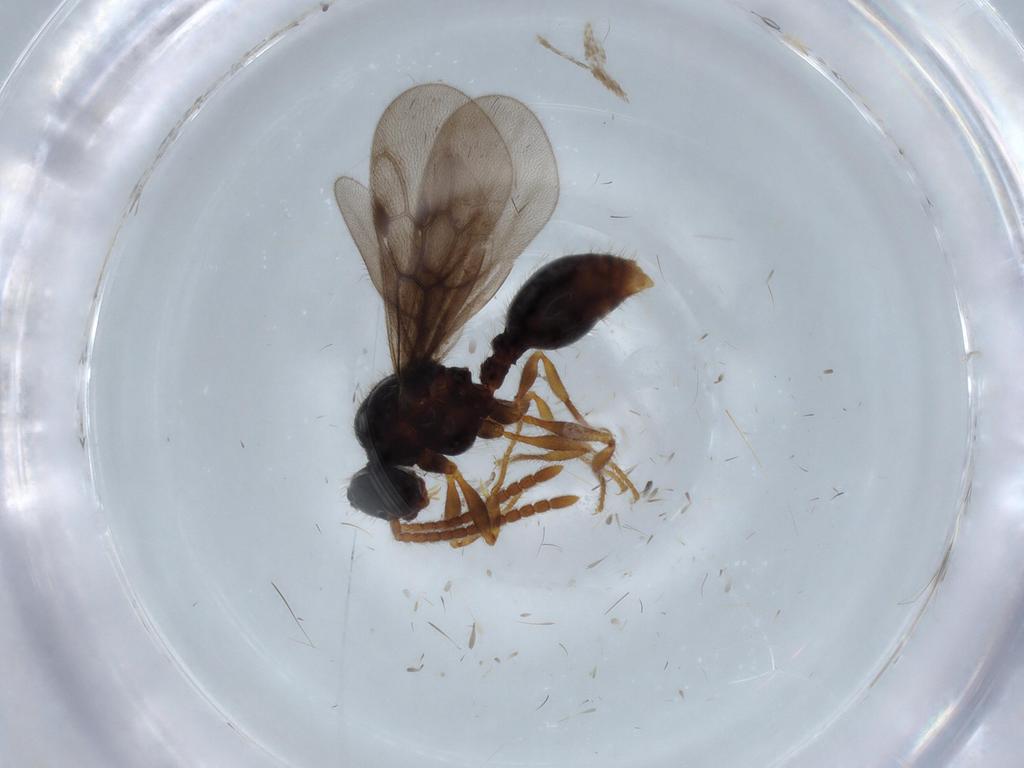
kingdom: Animalia
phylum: Arthropoda
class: Insecta
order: Hymenoptera
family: Formicidae
